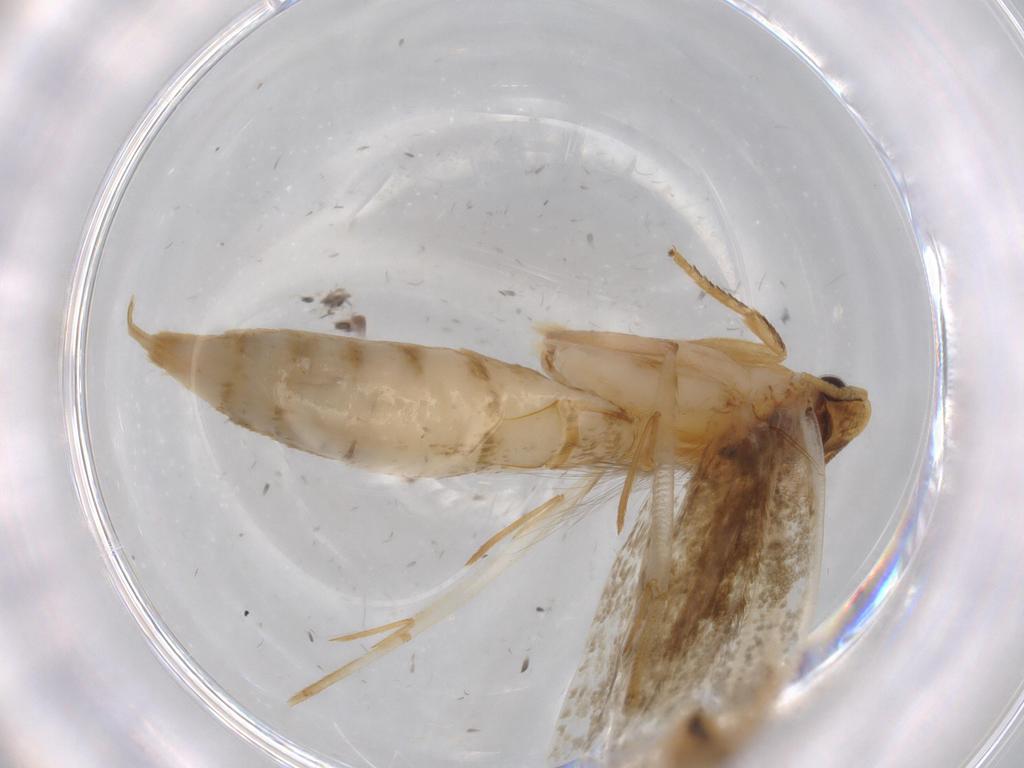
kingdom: Animalia
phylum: Arthropoda
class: Insecta
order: Lepidoptera
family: Tineidae
